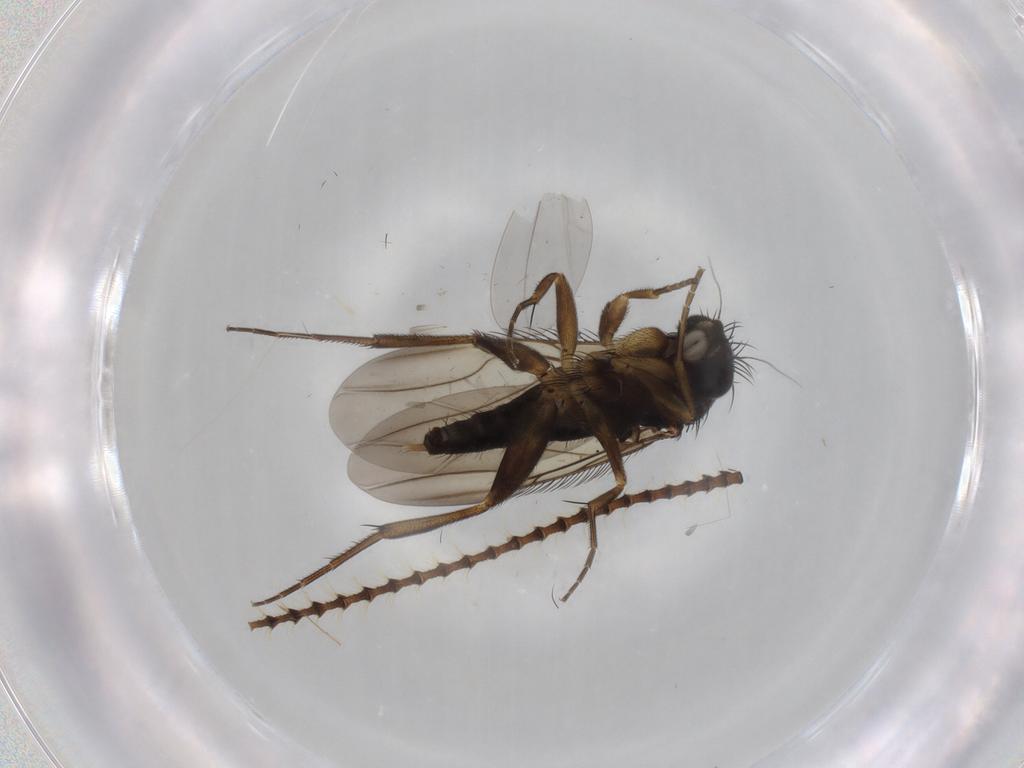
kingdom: Animalia
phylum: Arthropoda
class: Insecta
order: Diptera
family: Phoridae
